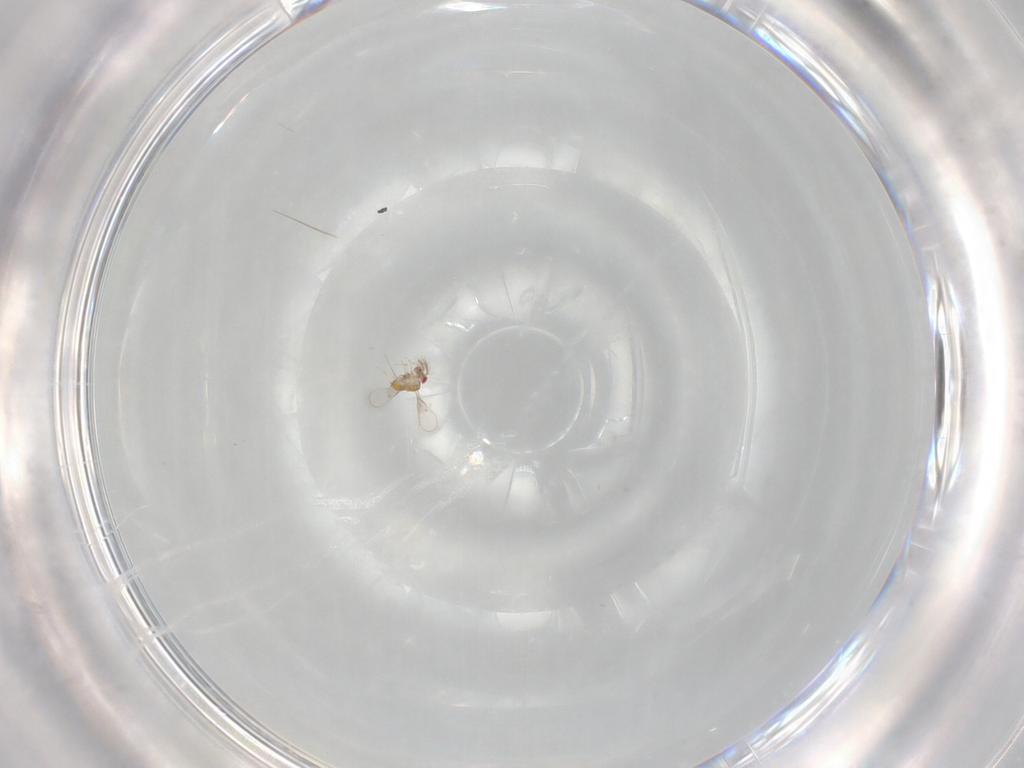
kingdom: Animalia
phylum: Arthropoda
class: Insecta
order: Hymenoptera
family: Trichogrammatidae
